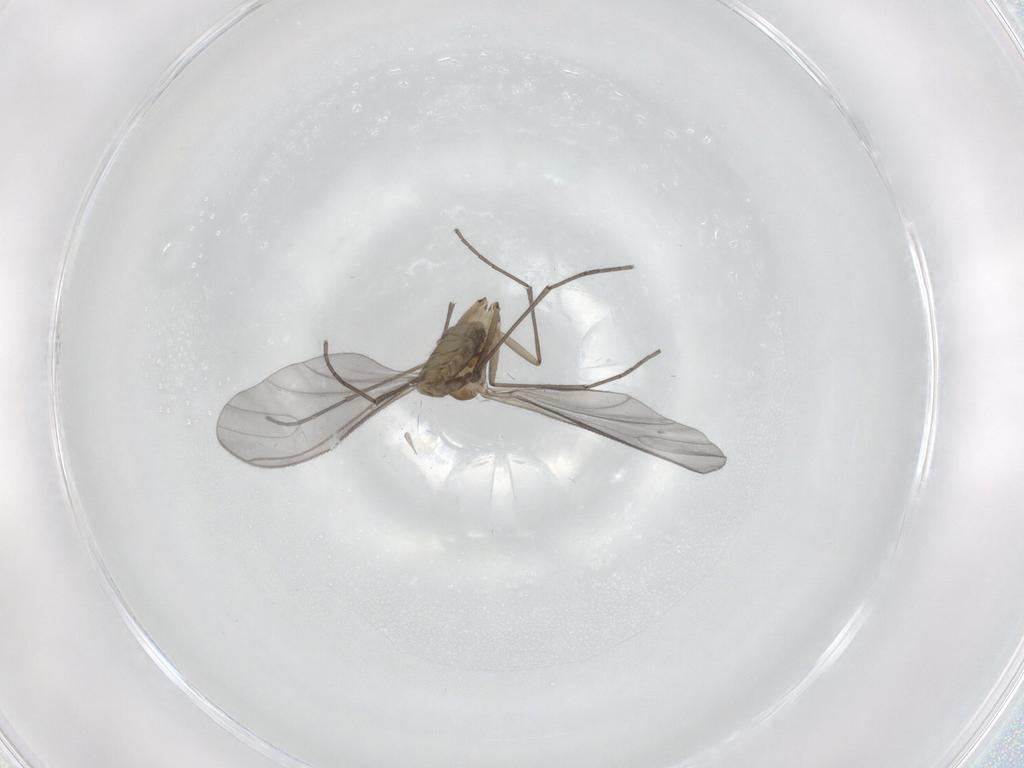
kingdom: Animalia
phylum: Arthropoda
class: Insecta
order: Diptera
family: Sciaridae
